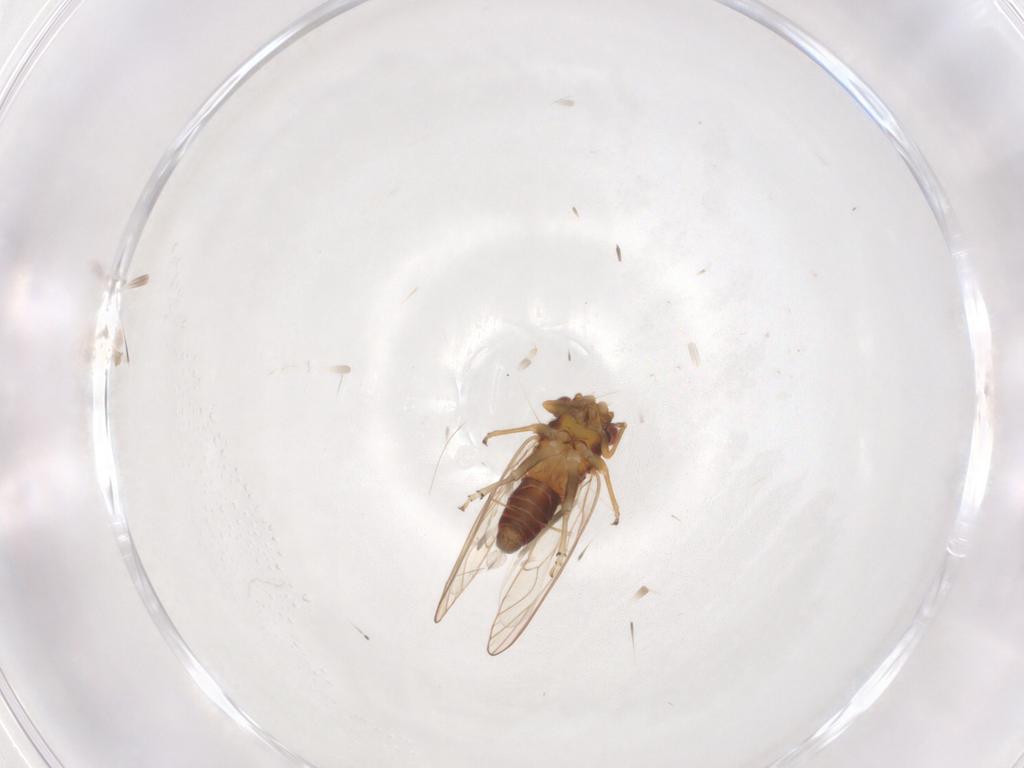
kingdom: Animalia
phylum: Arthropoda
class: Insecta
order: Hemiptera
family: Psyllidae
